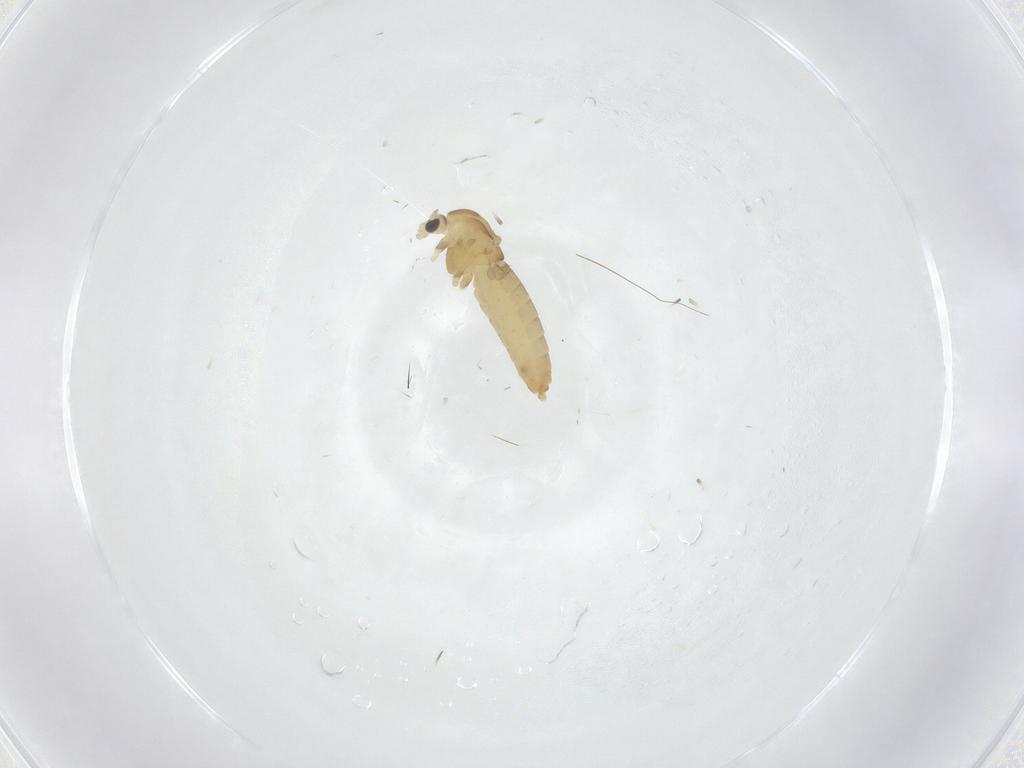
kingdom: Animalia
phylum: Arthropoda
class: Insecta
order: Diptera
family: Chironomidae
